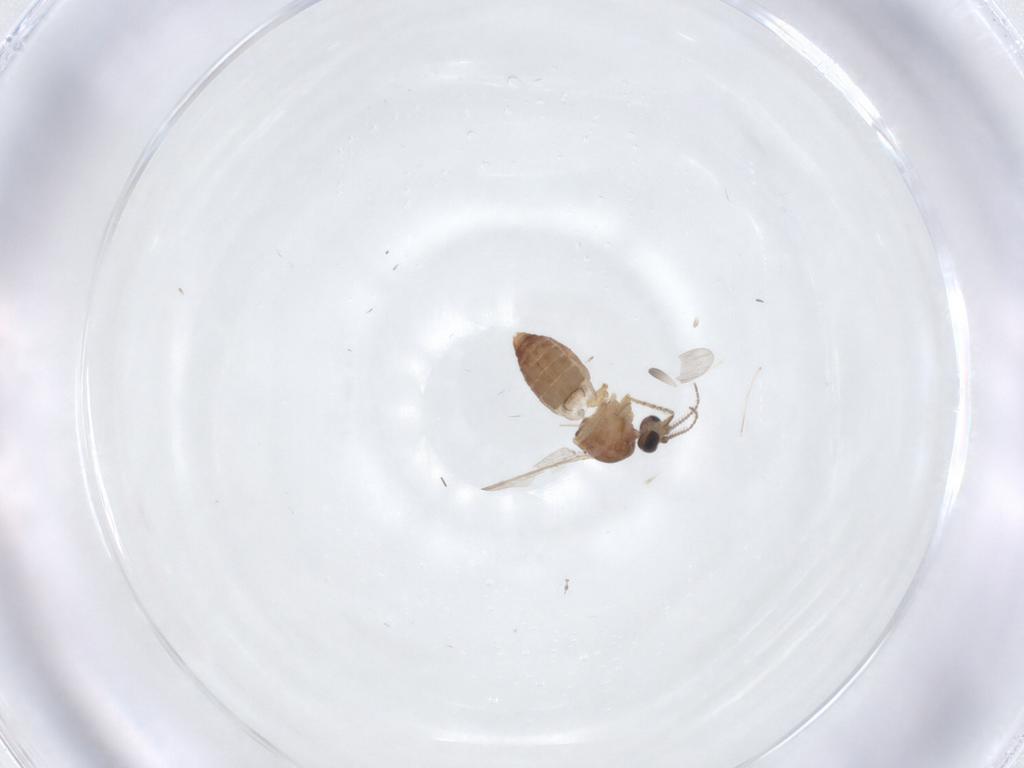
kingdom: Animalia
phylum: Arthropoda
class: Insecta
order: Diptera
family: Ceratopogonidae
